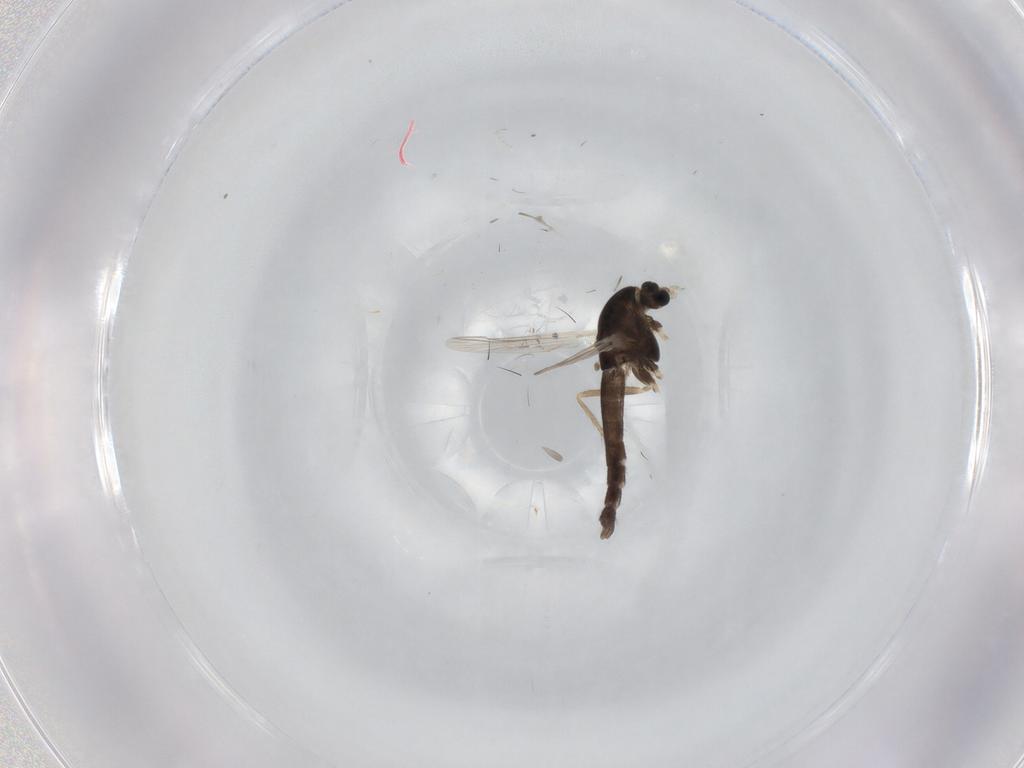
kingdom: Animalia
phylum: Arthropoda
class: Insecta
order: Diptera
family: Chironomidae
